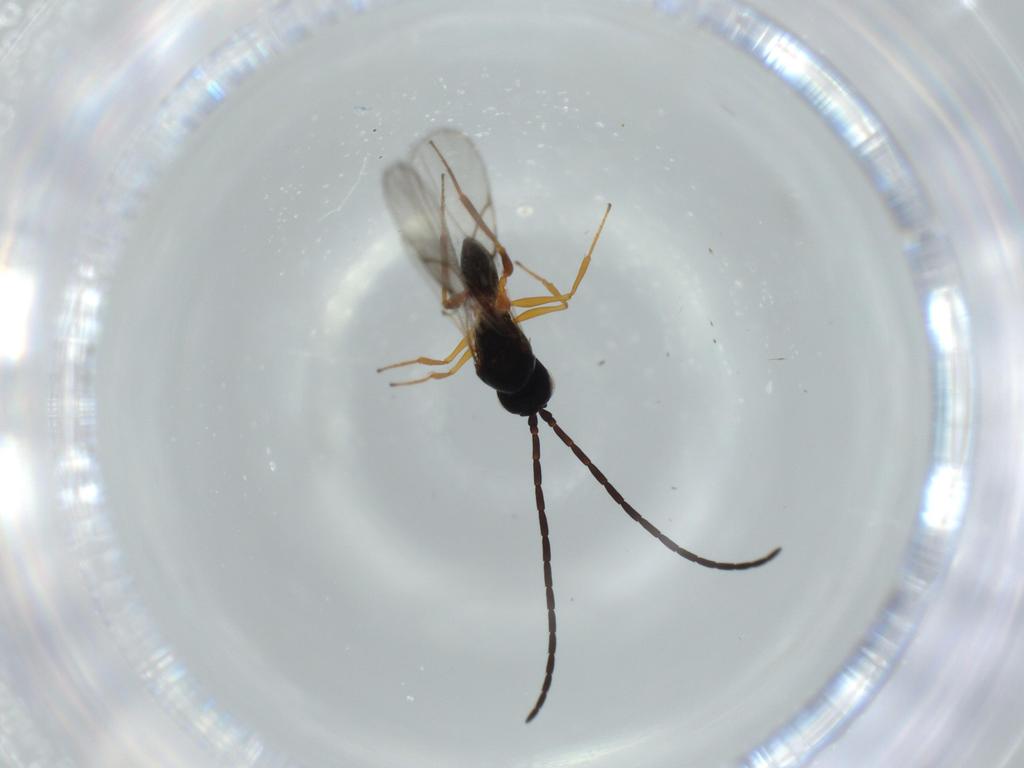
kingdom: Animalia
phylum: Arthropoda
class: Insecta
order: Hymenoptera
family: Figitidae
